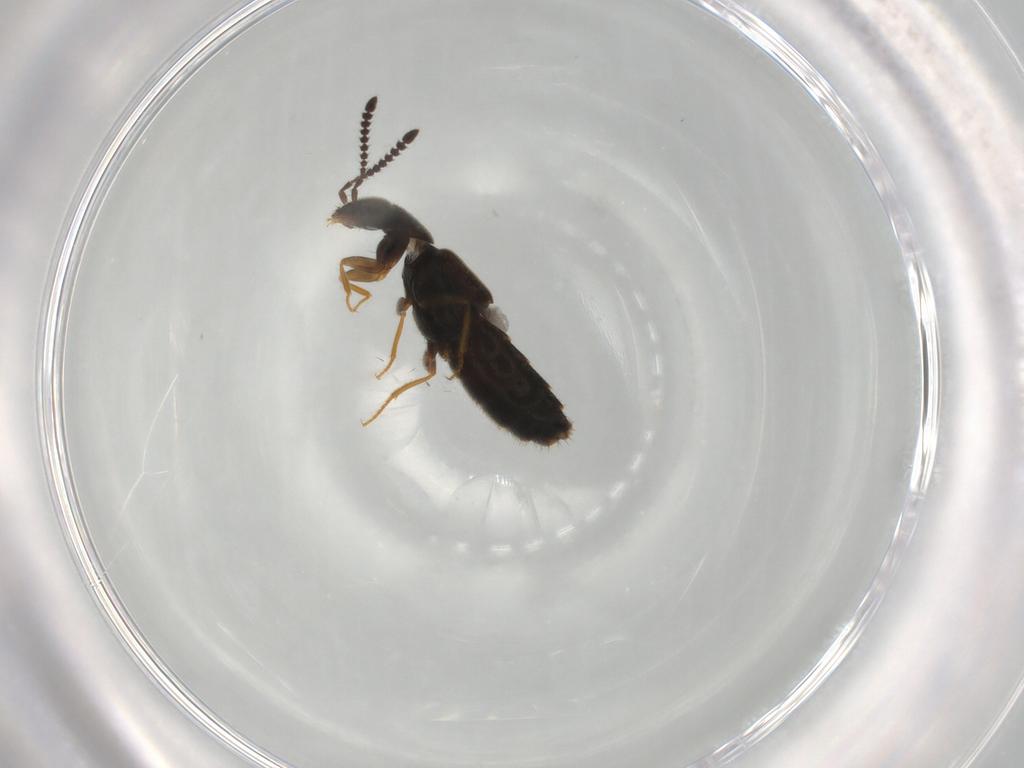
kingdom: Animalia
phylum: Arthropoda
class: Insecta
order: Coleoptera
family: Staphylinidae
